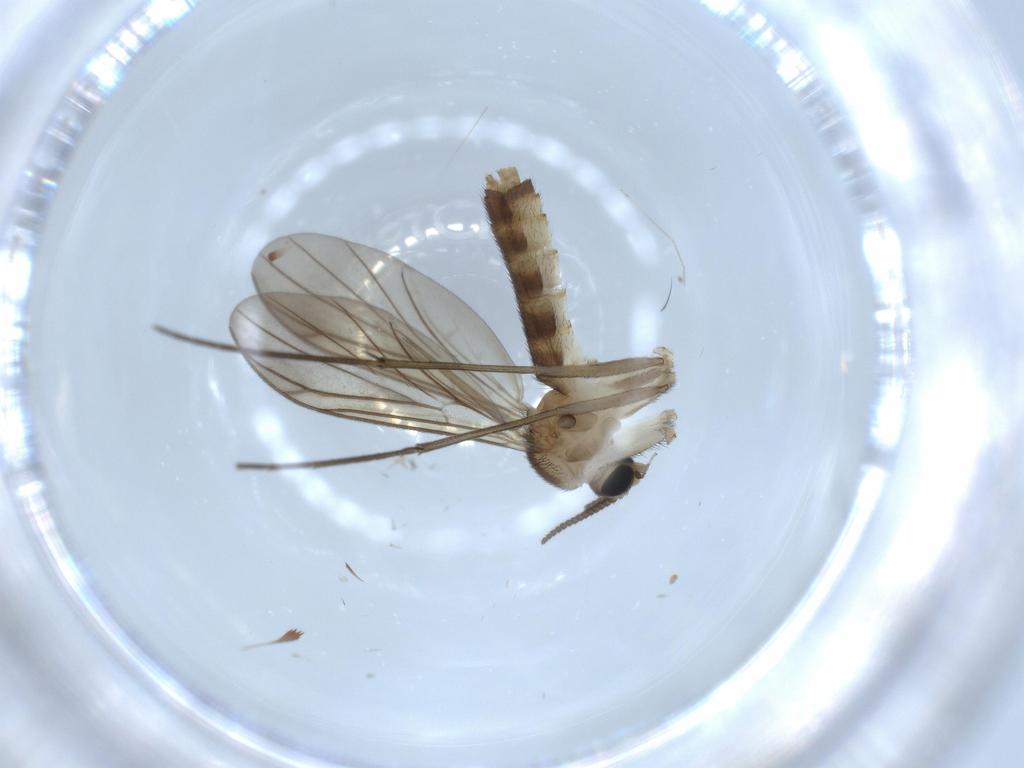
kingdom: Animalia
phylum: Arthropoda
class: Insecta
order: Diptera
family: Mycetophilidae
